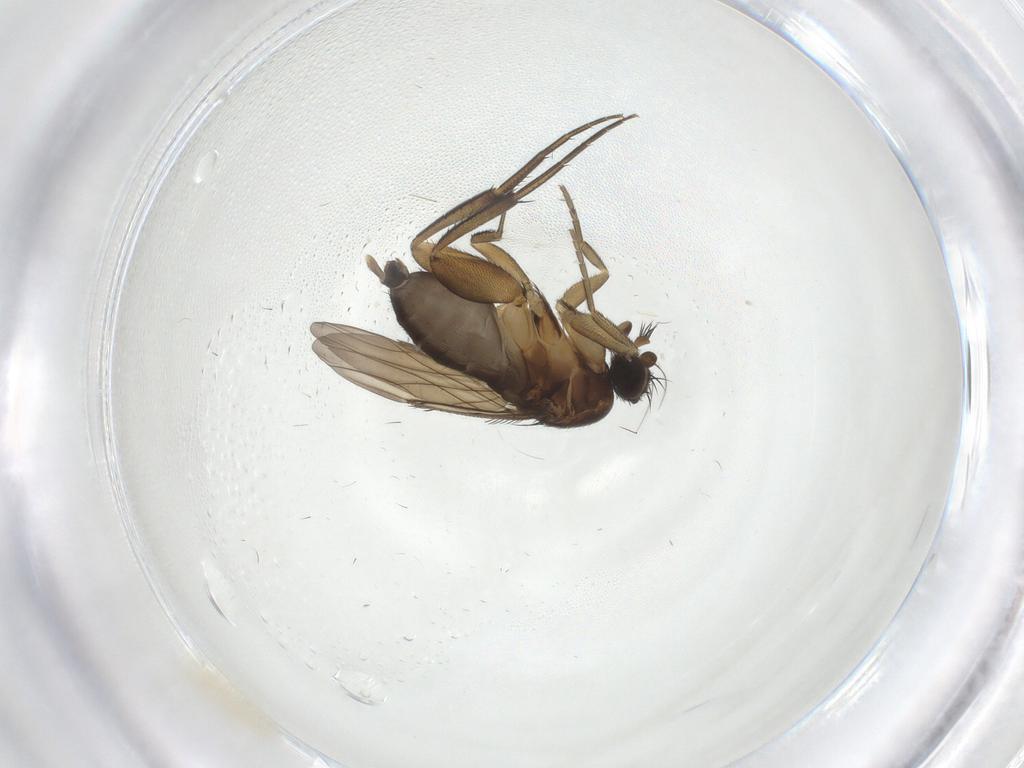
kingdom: Animalia
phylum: Arthropoda
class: Insecta
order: Diptera
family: Phoridae
